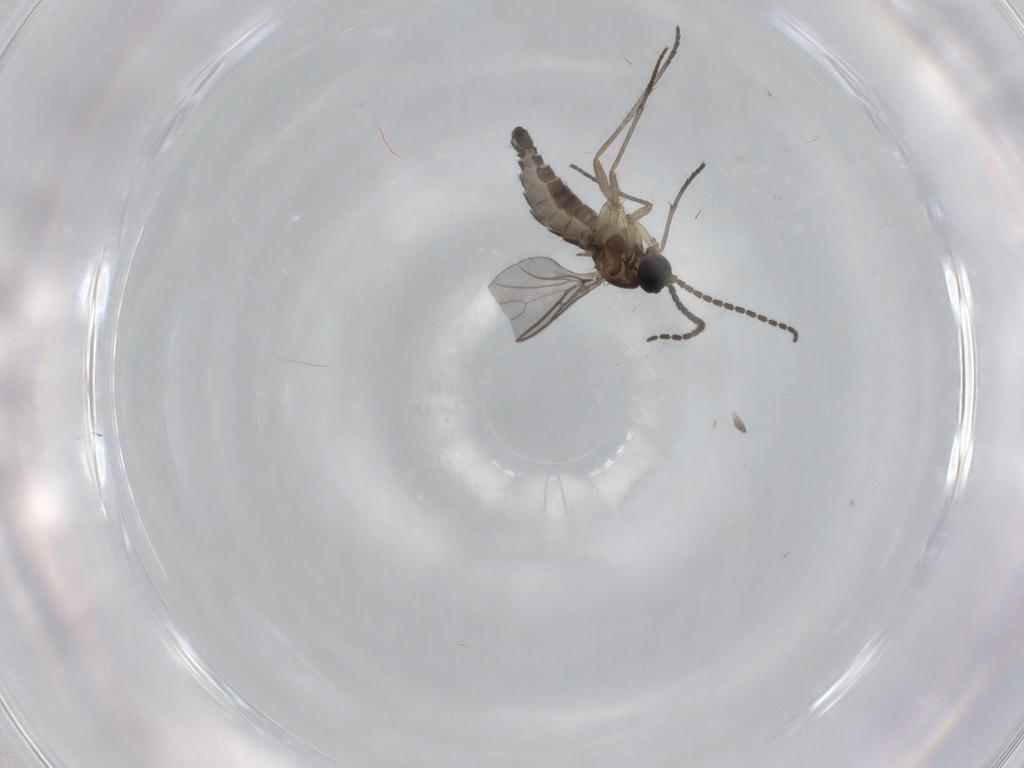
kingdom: Animalia
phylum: Arthropoda
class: Insecta
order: Diptera
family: Sciaridae
